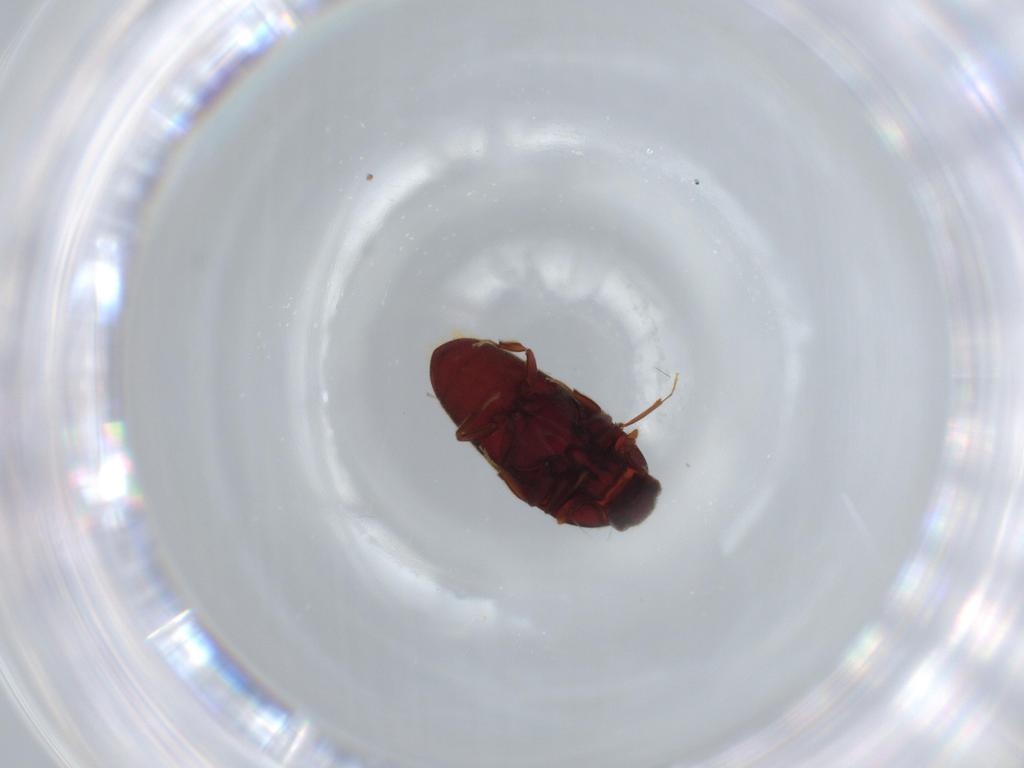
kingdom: Animalia
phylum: Arthropoda
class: Insecta
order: Coleoptera
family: Throscidae
